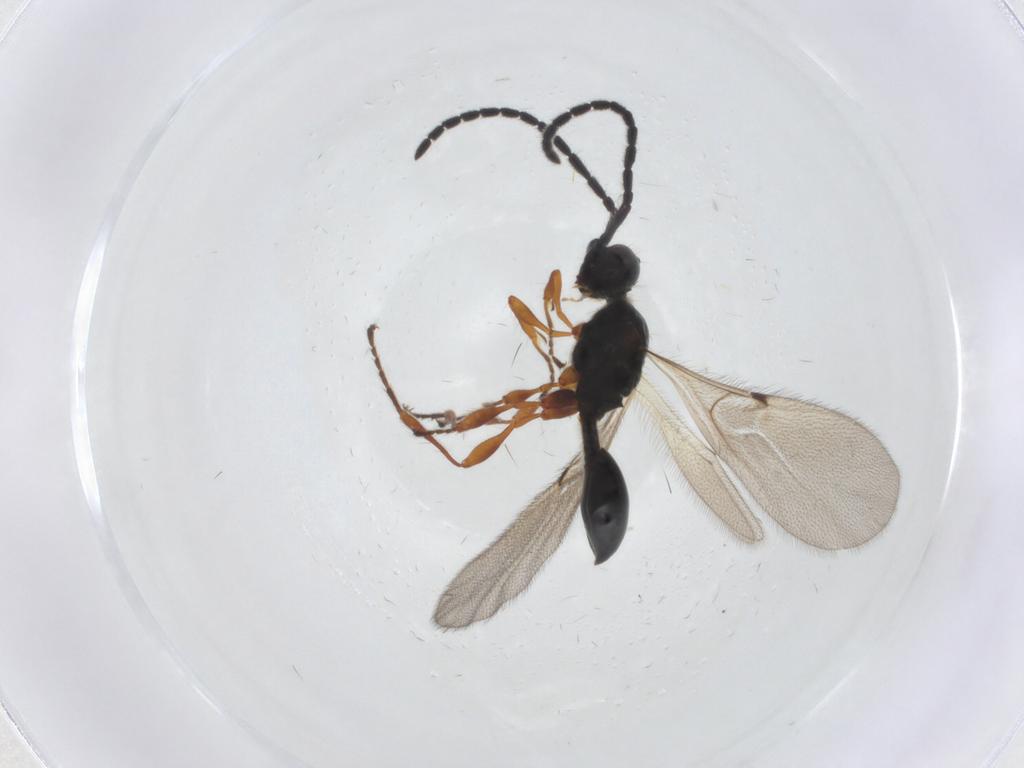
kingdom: Animalia
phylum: Arthropoda
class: Insecta
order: Hymenoptera
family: Diapriidae
